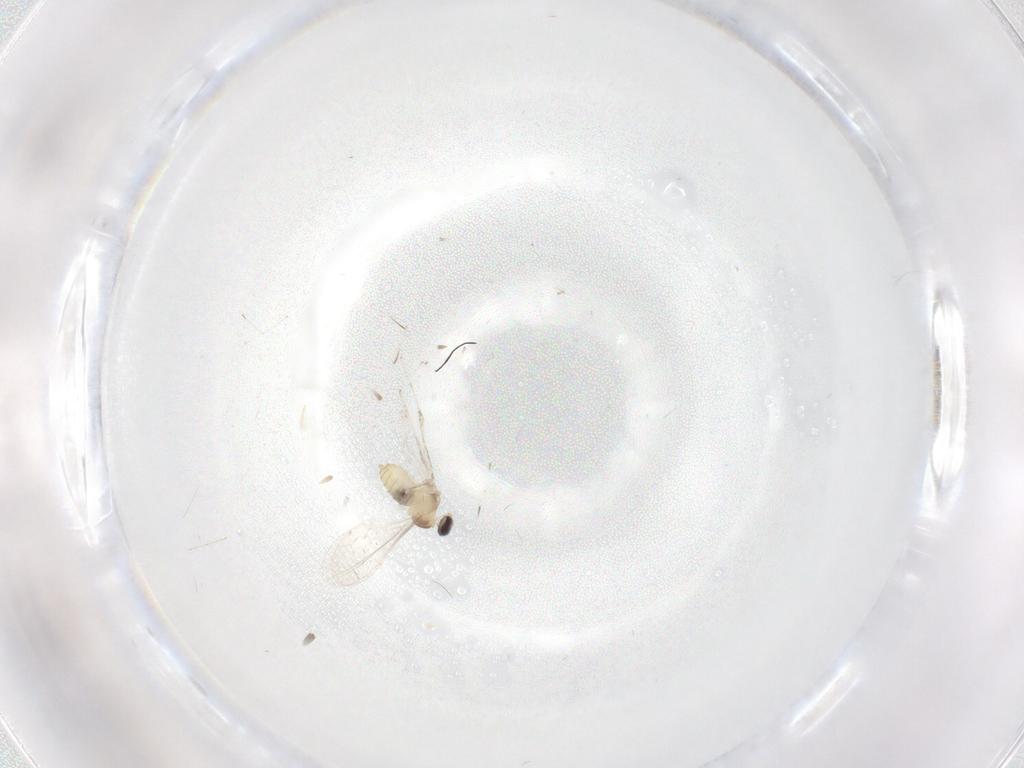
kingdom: Animalia
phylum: Arthropoda
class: Insecta
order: Diptera
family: Cecidomyiidae
